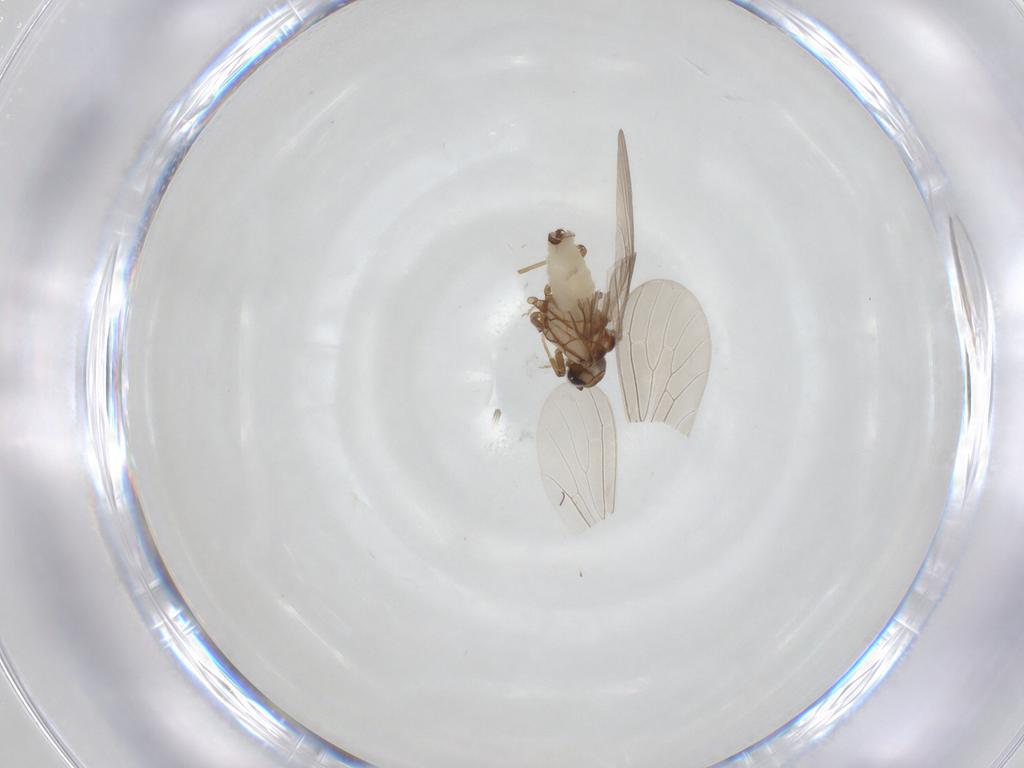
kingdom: Animalia
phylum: Arthropoda
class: Insecta
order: Neuroptera
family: Coniopterygidae
